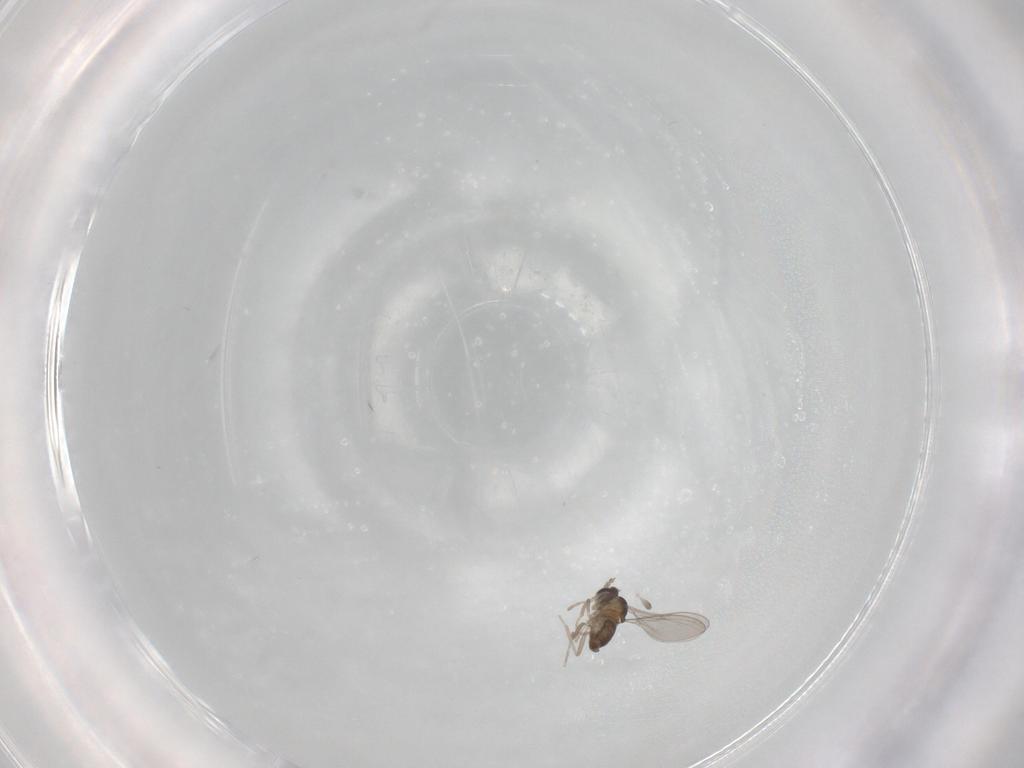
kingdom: Animalia
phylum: Arthropoda
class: Insecta
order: Diptera
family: Cecidomyiidae
